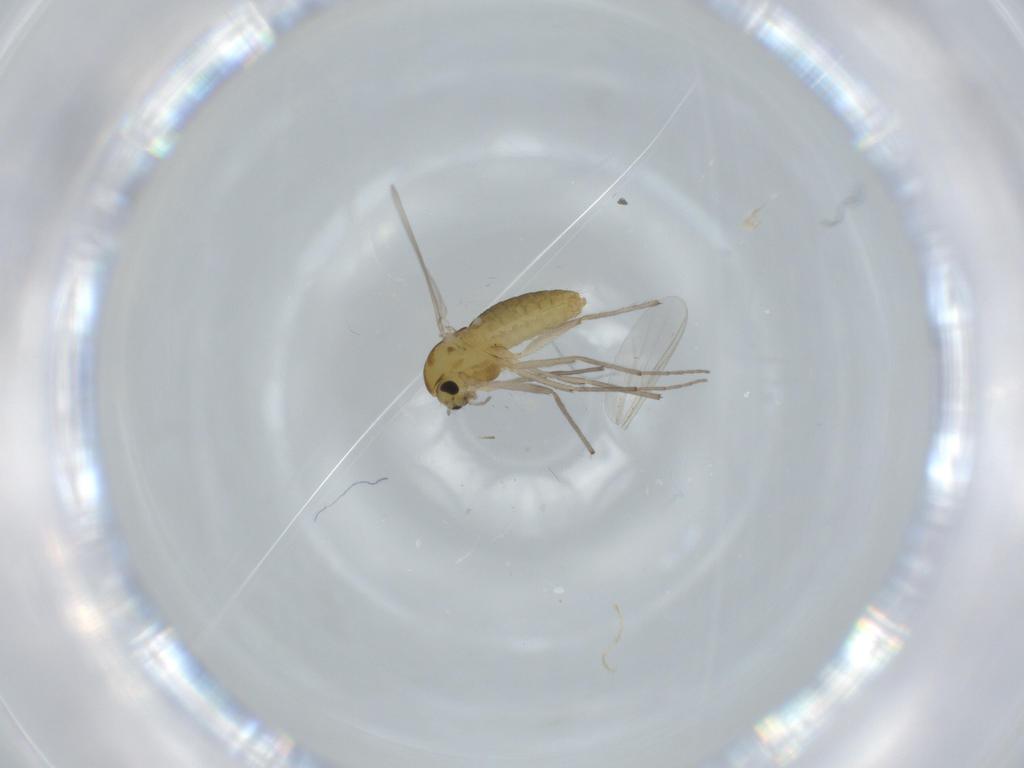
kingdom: Animalia
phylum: Arthropoda
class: Insecta
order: Diptera
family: Chironomidae
